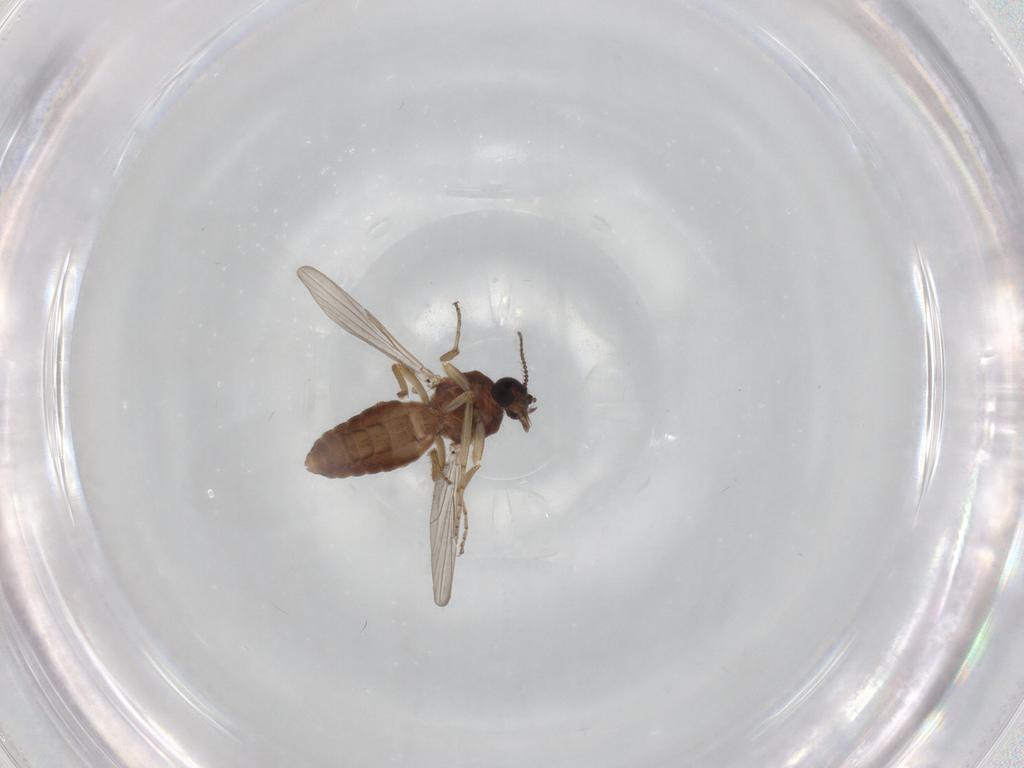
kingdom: Animalia
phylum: Arthropoda
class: Insecta
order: Diptera
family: Ceratopogonidae
